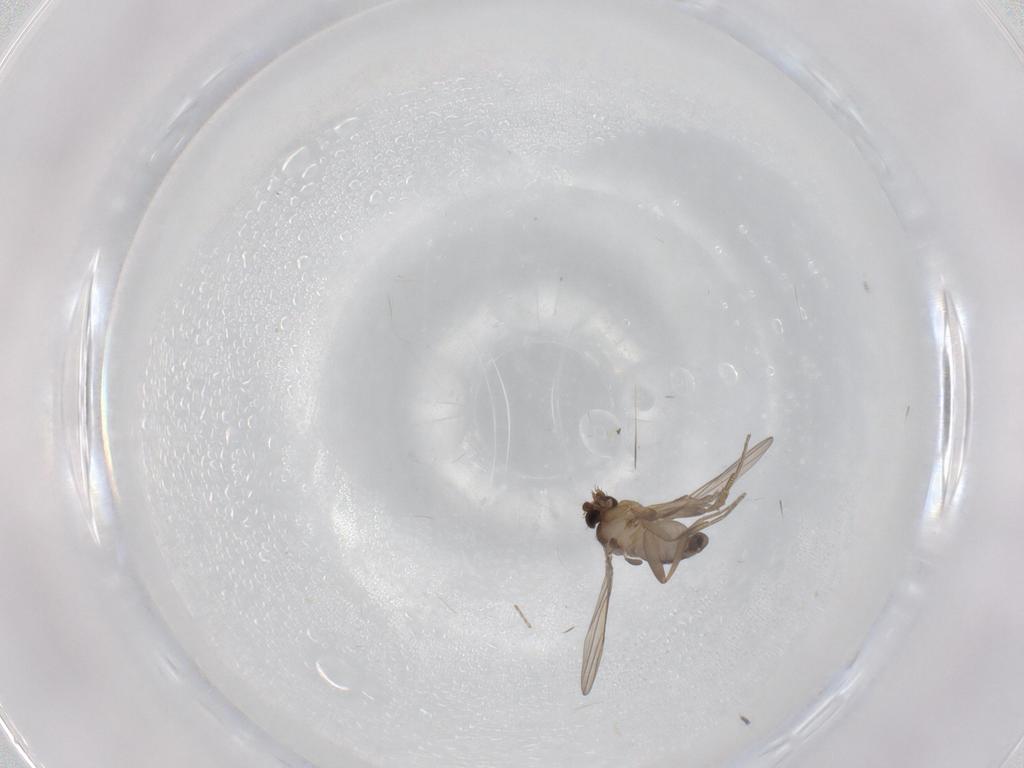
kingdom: Animalia
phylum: Arthropoda
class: Insecta
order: Diptera
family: Phoridae
